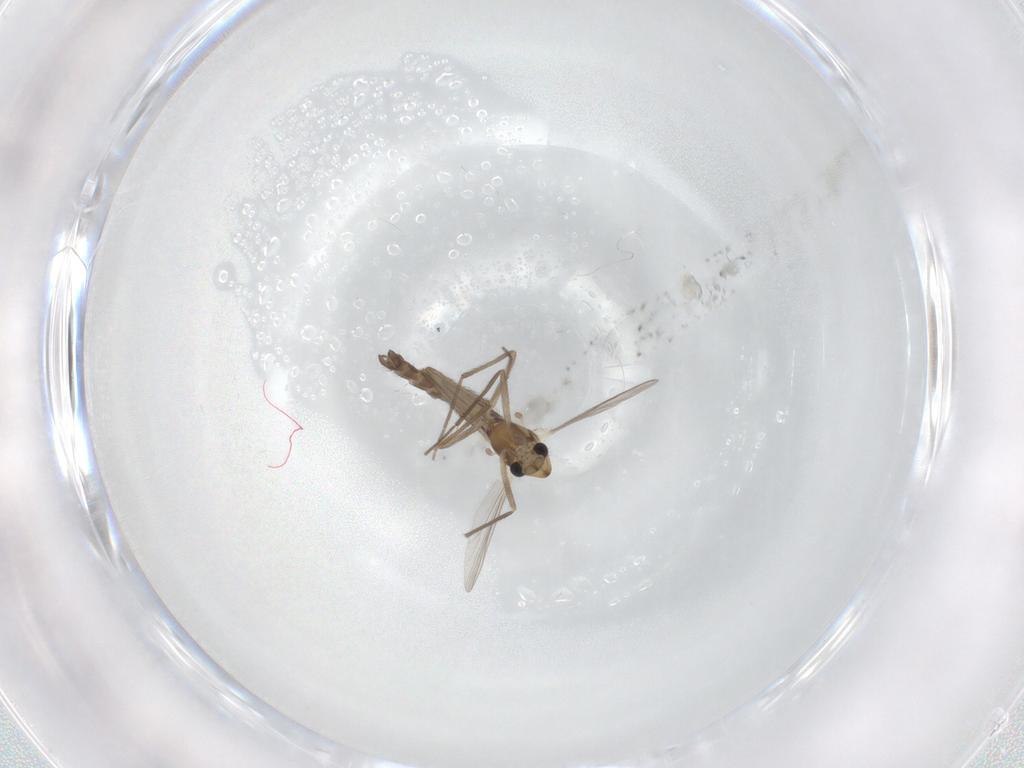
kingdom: Animalia
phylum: Arthropoda
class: Insecta
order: Diptera
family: Chironomidae
